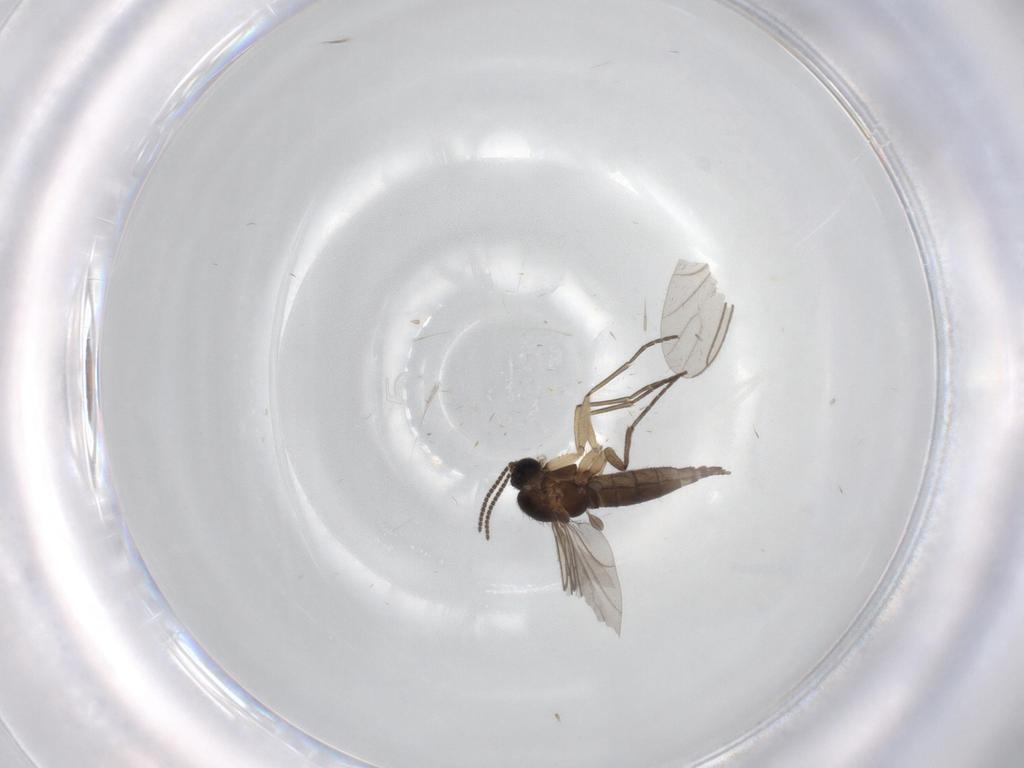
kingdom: Animalia
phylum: Arthropoda
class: Insecta
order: Diptera
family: Sciaridae
